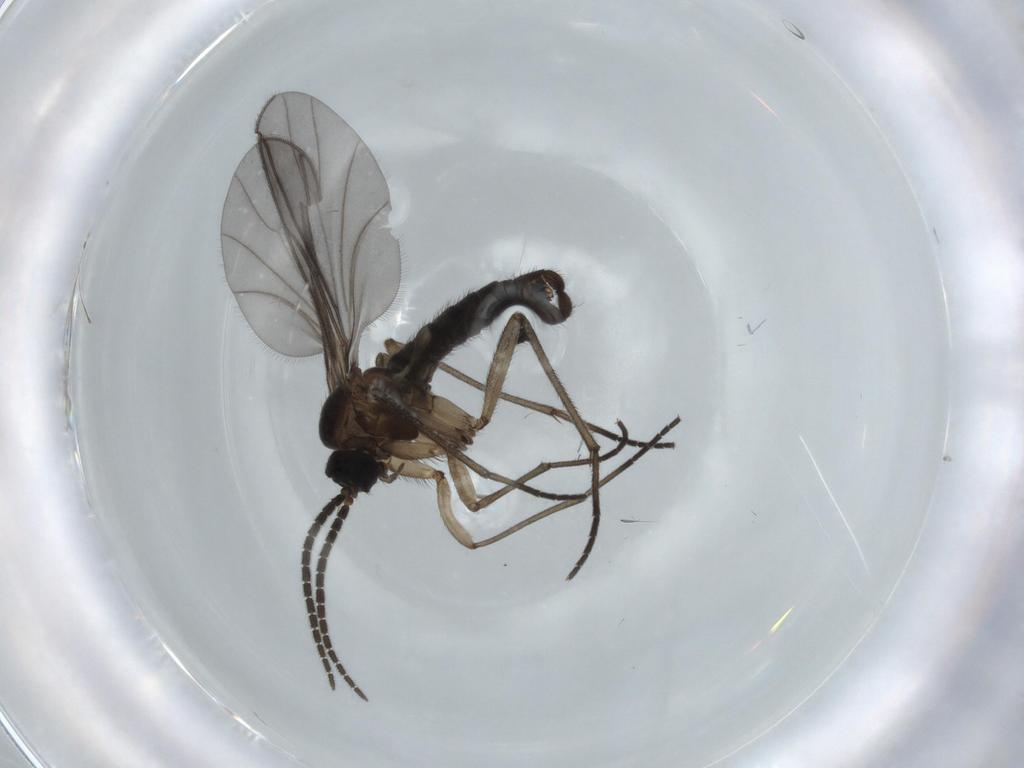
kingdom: Animalia
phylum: Arthropoda
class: Insecta
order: Diptera
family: Sciaridae
